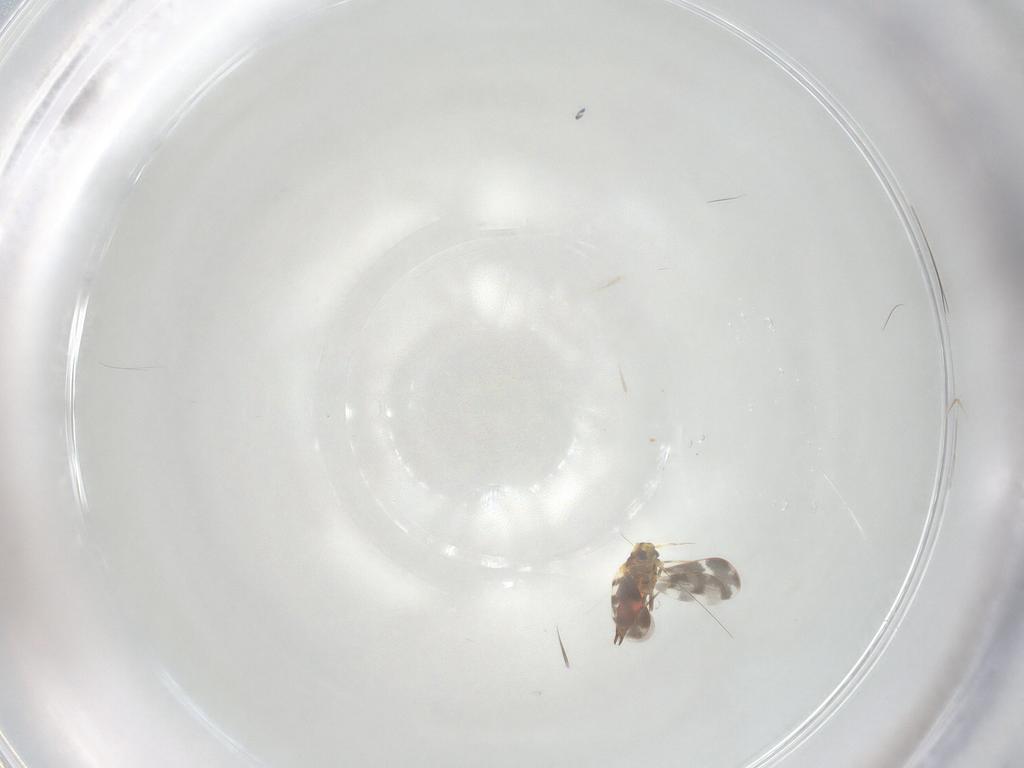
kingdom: Animalia
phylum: Arthropoda
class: Insecta
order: Hemiptera
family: Aleyrodidae
